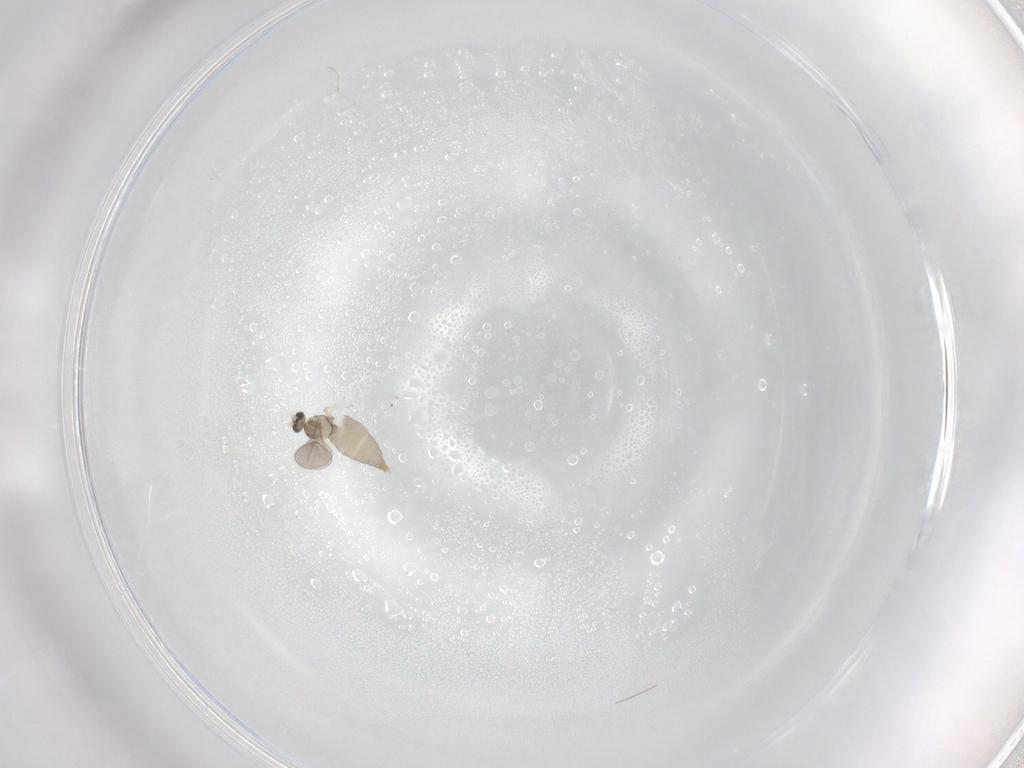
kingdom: Animalia
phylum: Arthropoda
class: Insecta
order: Diptera
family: Cecidomyiidae
